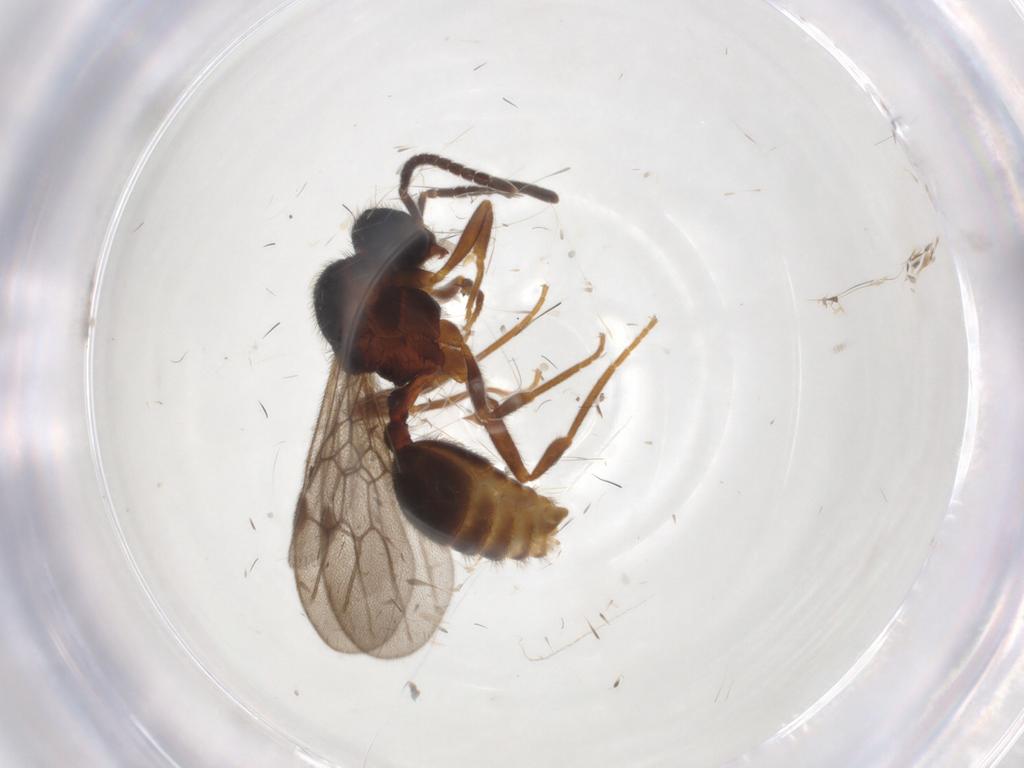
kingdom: Animalia
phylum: Arthropoda
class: Insecta
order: Hymenoptera
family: Formicidae
